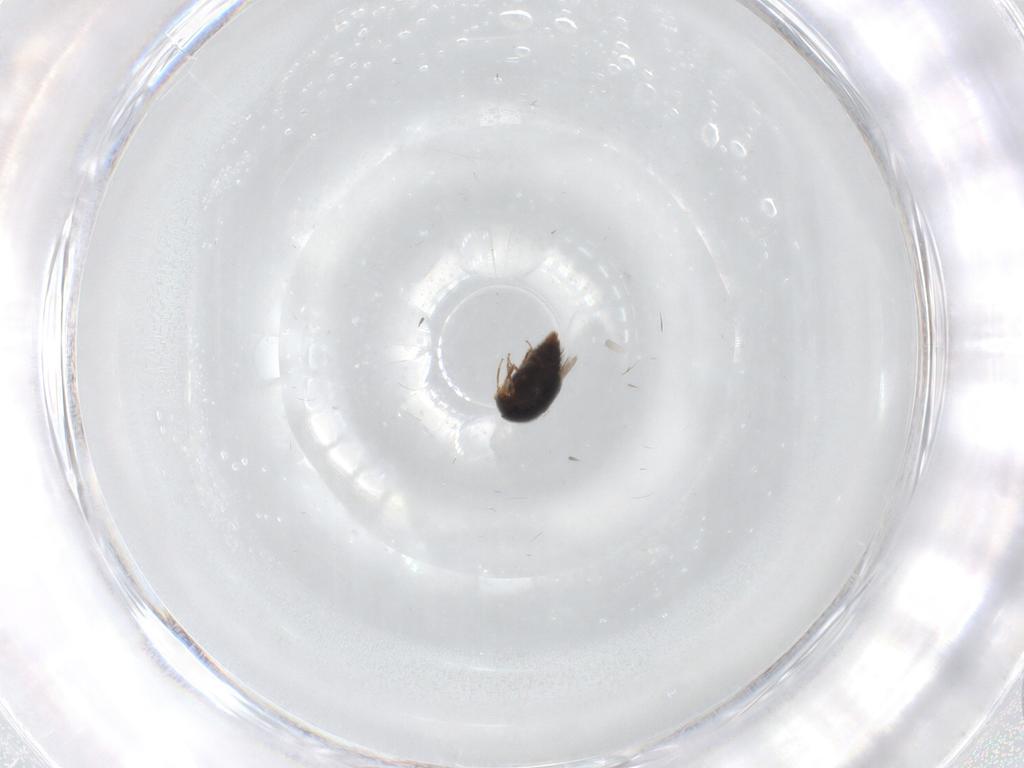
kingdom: Animalia
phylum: Arthropoda
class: Insecta
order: Coleoptera
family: Staphylinidae
